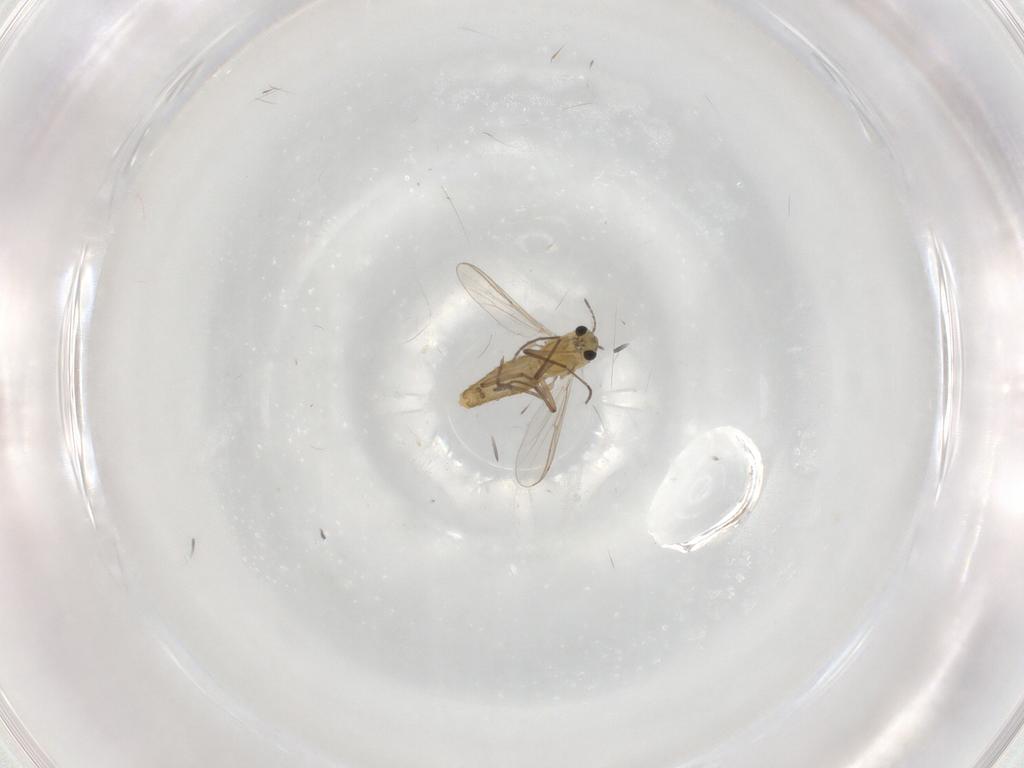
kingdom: Animalia
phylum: Arthropoda
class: Insecta
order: Diptera
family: Chironomidae
